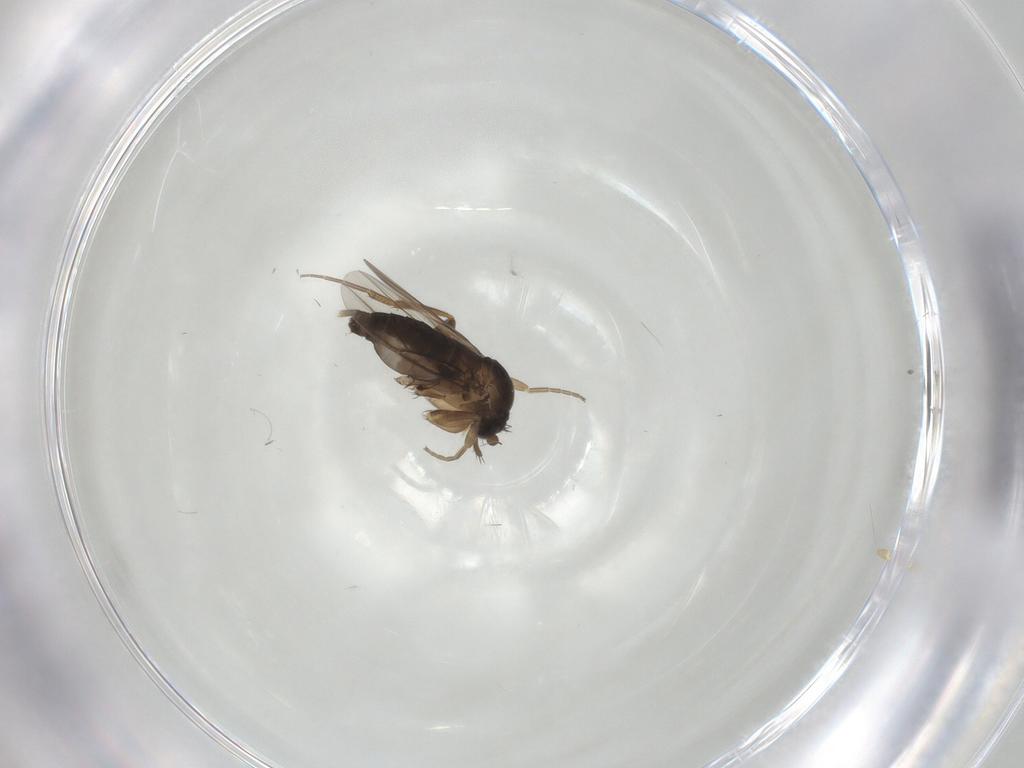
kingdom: Animalia
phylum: Arthropoda
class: Insecta
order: Diptera
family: Phoridae
